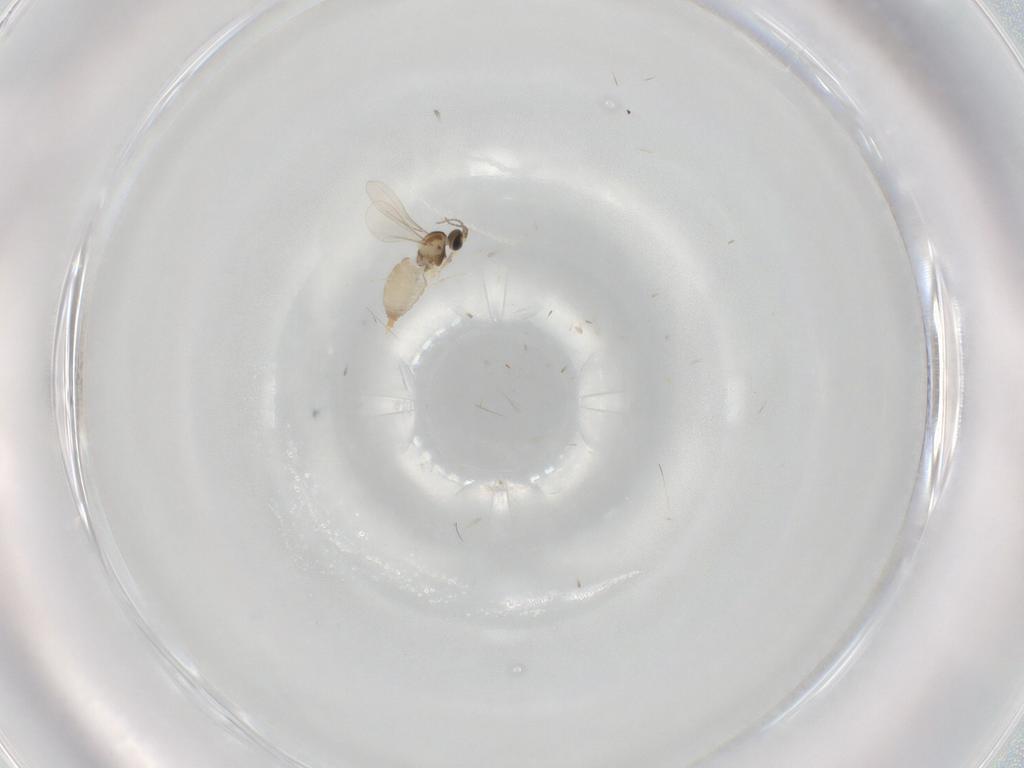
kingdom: Animalia
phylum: Arthropoda
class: Insecta
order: Diptera
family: Cecidomyiidae
